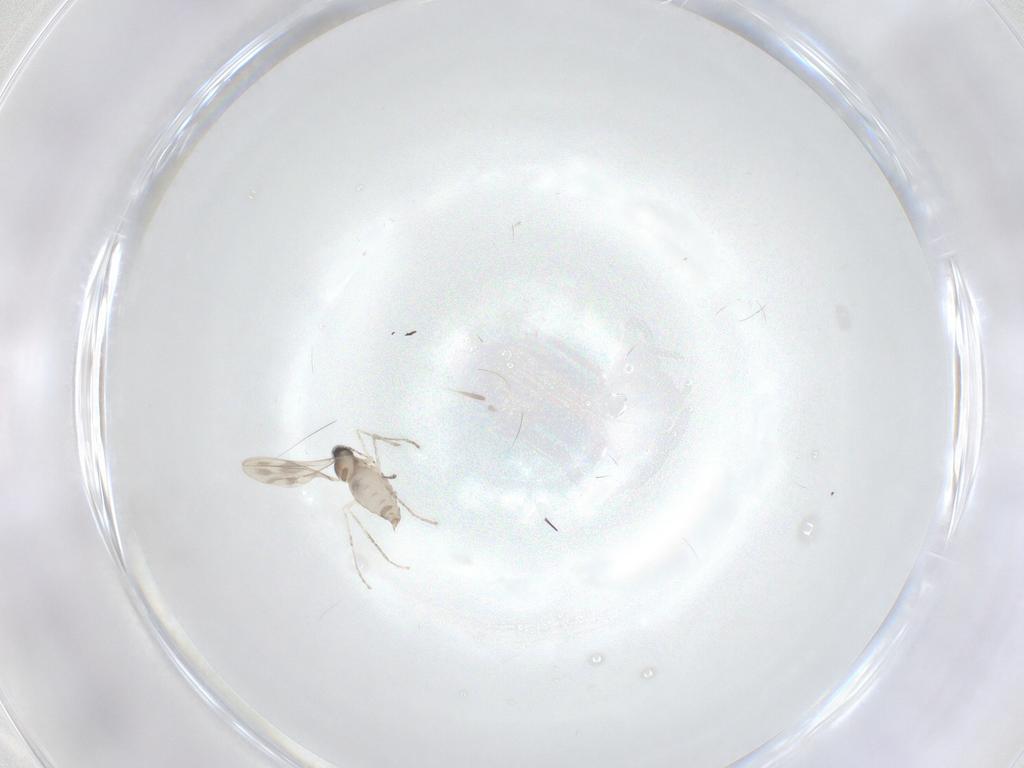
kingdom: Animalia
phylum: Arthropoda
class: Insecta
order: Diptera
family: Cecidomyiidae
